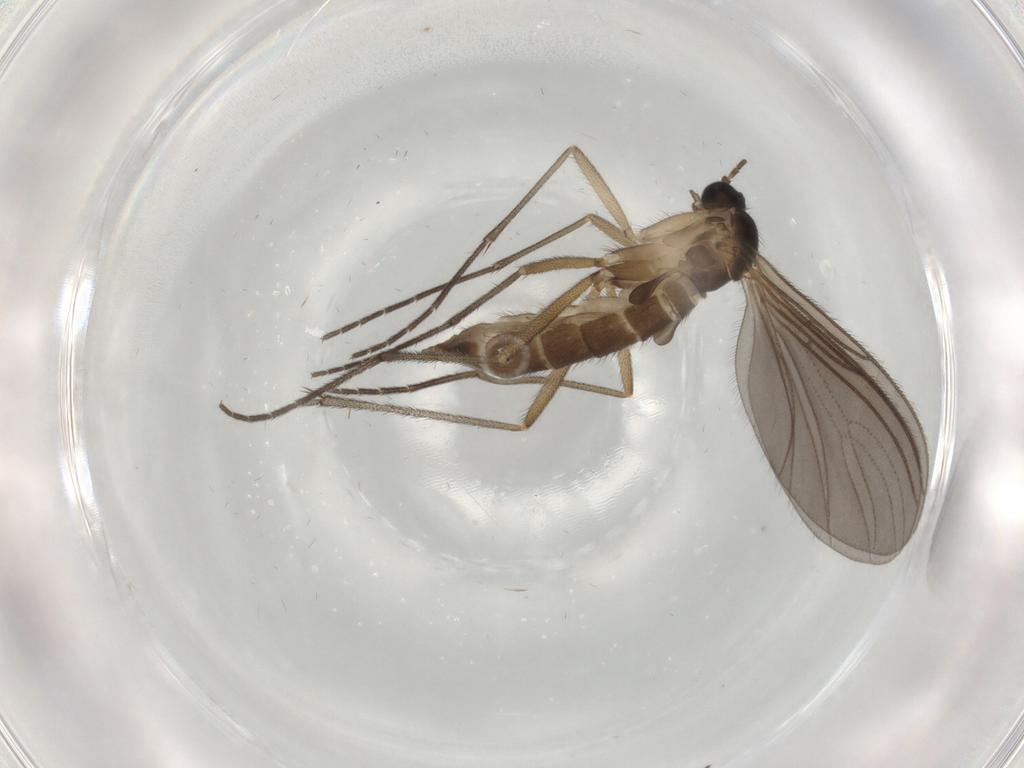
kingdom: Animalia
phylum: Arthropoda
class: Insecta
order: Diptera
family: Sciaridae
